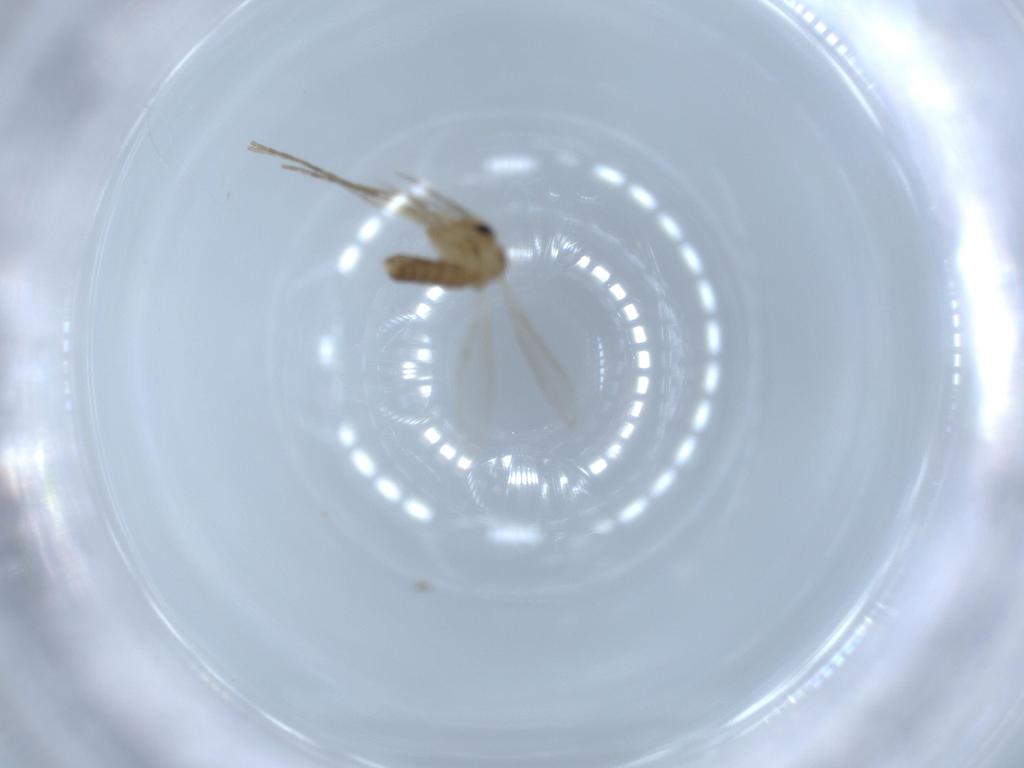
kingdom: Animalia
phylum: Arthropoda
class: Insecta
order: Diptera
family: Psychodidae
